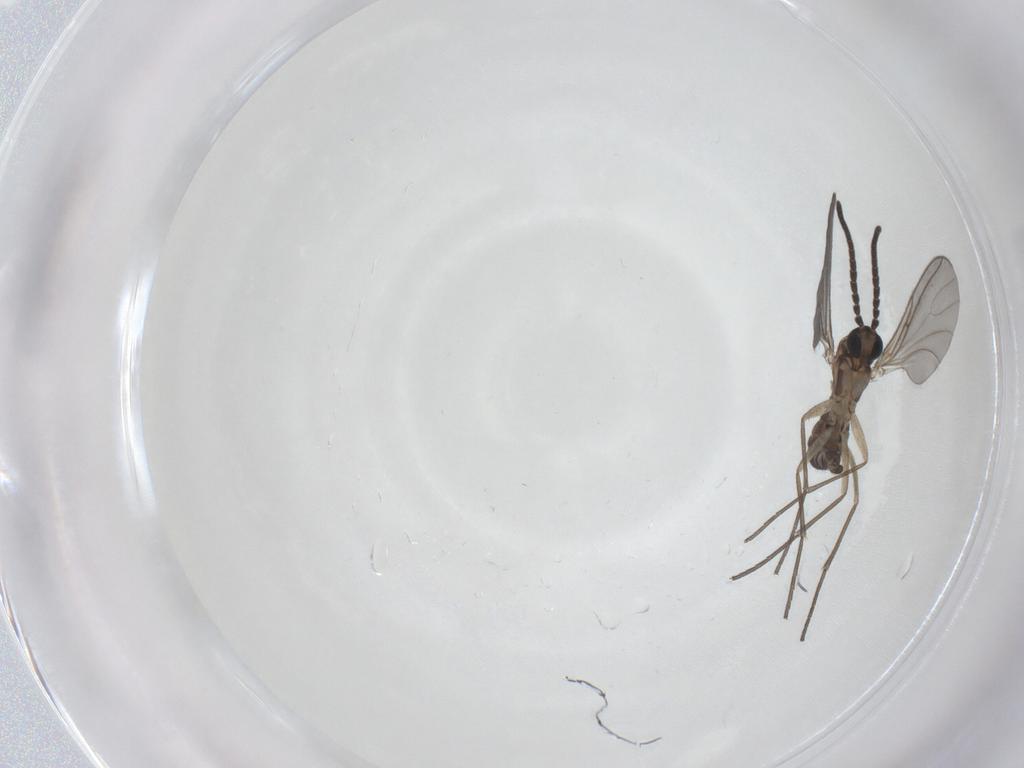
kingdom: Animalia
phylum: Arthropoda
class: Insecta
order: Diptera
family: Sciaridae
